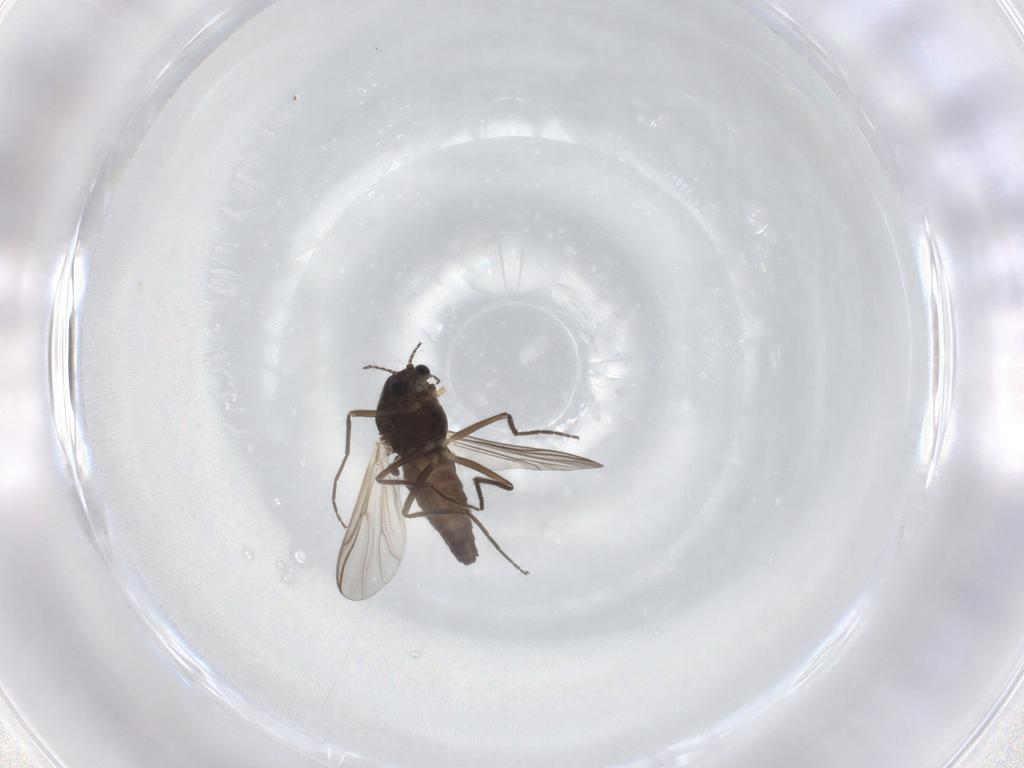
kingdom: Animalia
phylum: Arthropoda
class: Insecta
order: Diptera
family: Chironomidae
